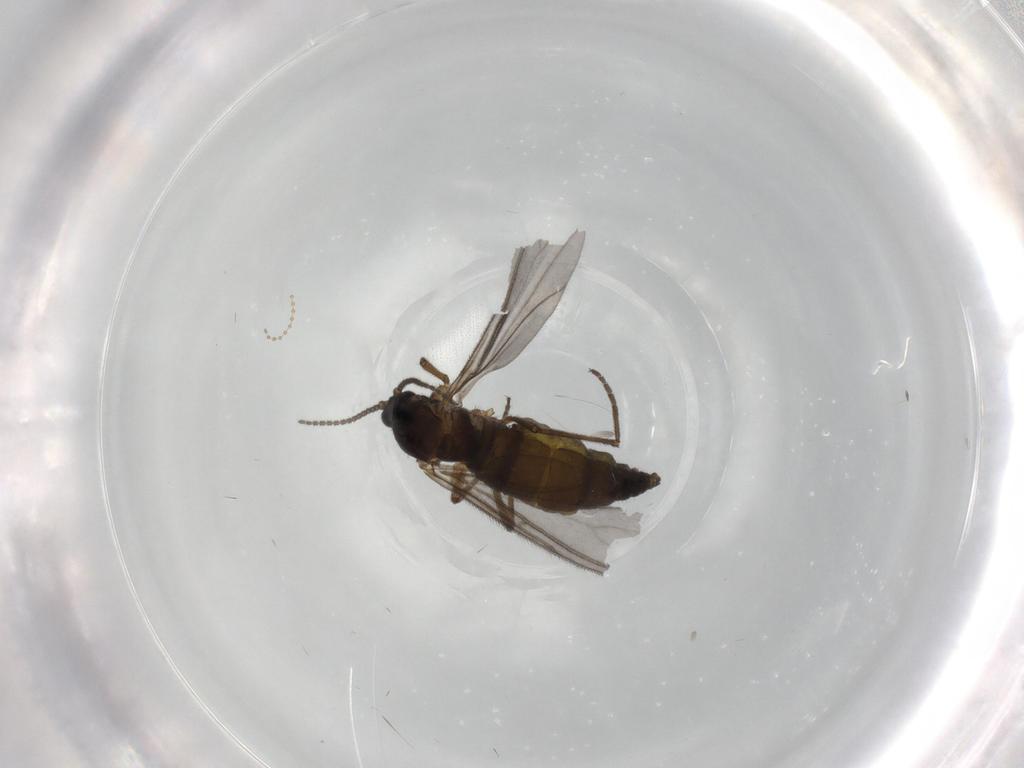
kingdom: Animalia
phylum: Arthropoda
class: Insecta
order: Diptera
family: Sciaridae
